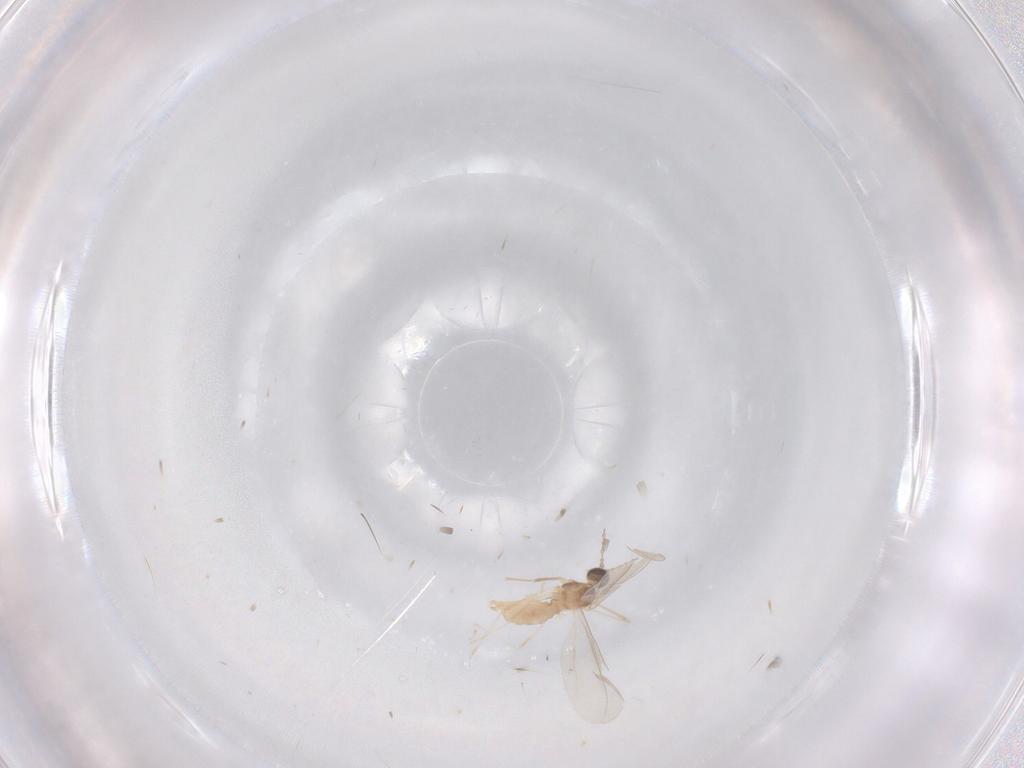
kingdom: Animalia
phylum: Arthropoda
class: Insecta
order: Diptera
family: Cecidomyiidae
